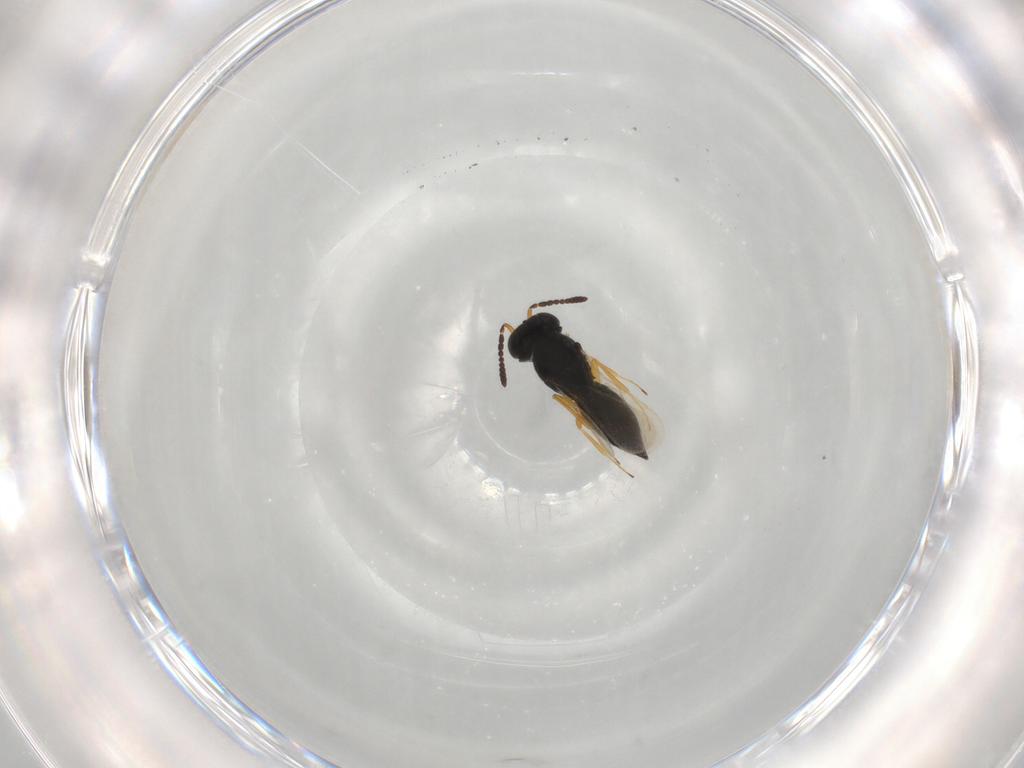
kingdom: Animalia
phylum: Arthropoda
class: Insecta
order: Hymenoptera
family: Scelionidae
